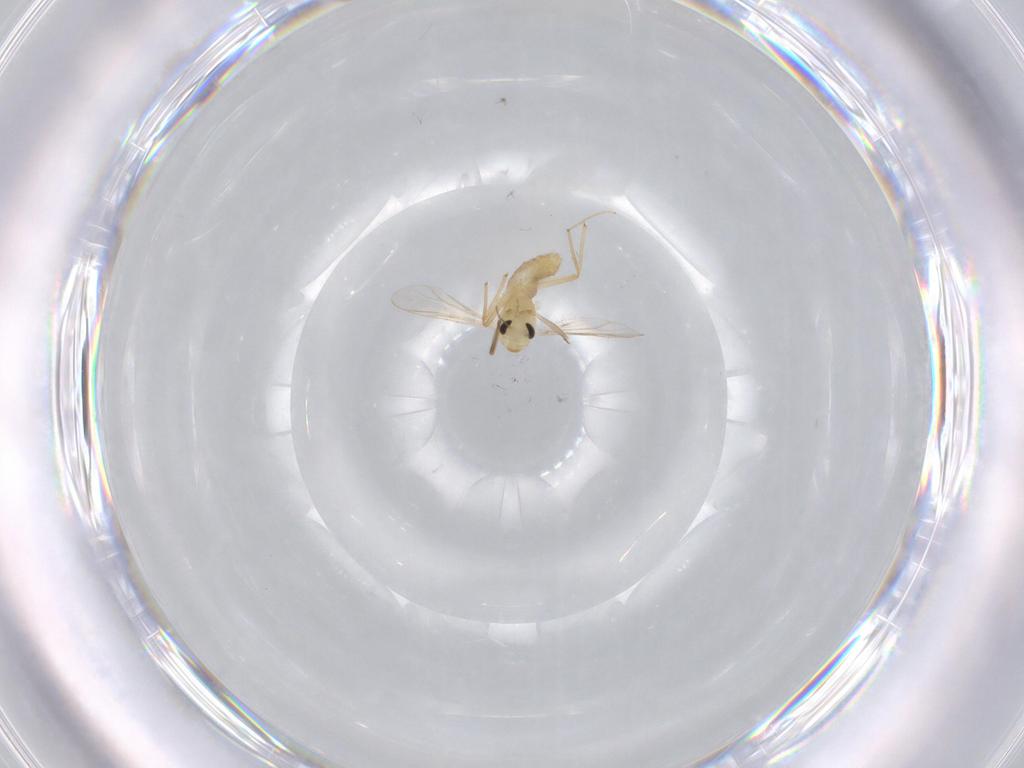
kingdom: Animalia
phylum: Arthropoda
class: Insecta
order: Diptera
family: Chironomidae
